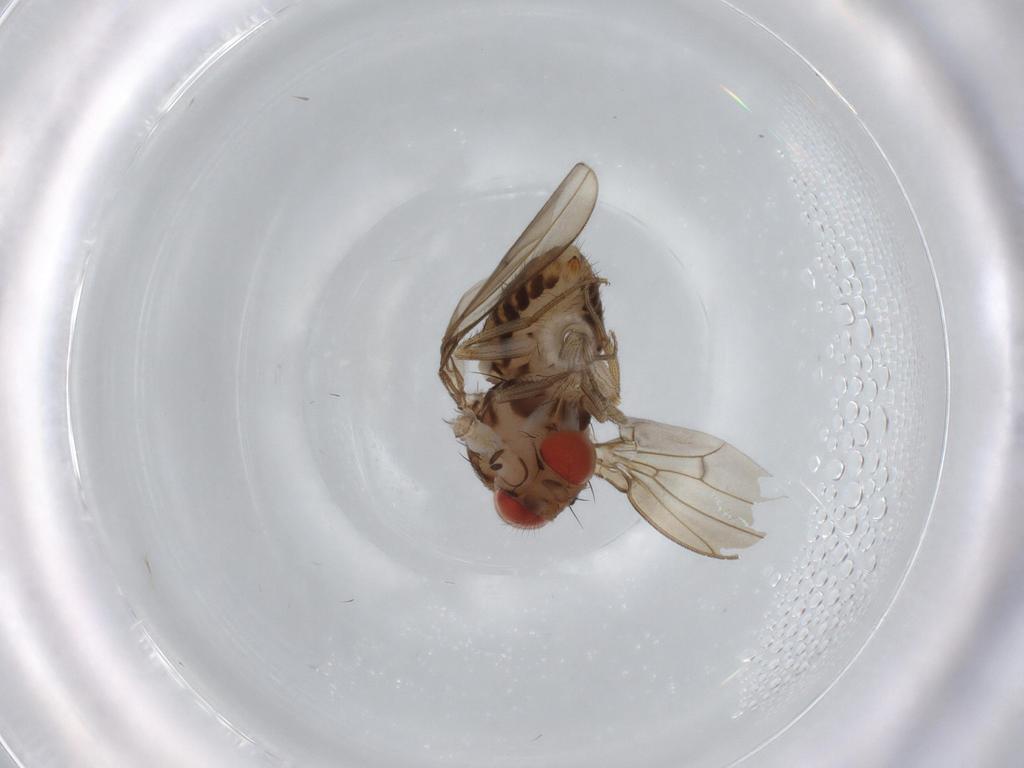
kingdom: Animalia
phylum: Arthropoda
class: Insecta
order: Diptera
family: Drosophilidae
